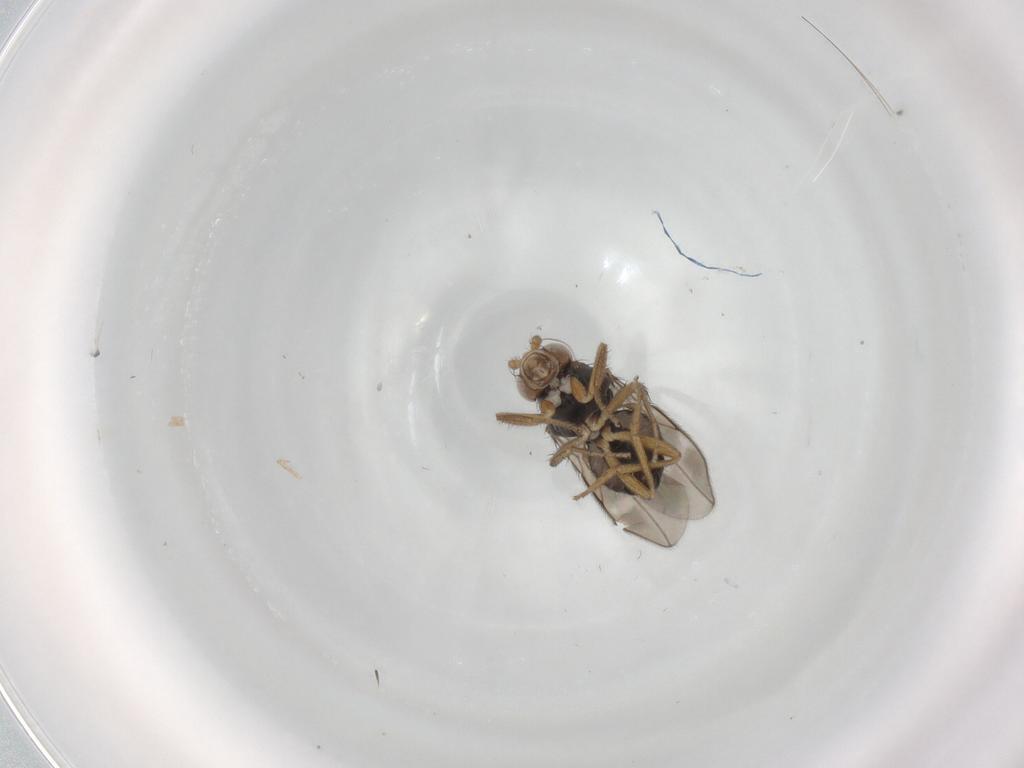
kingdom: Animalia
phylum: Arthropoda
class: Insecta
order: Diptera
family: Sphaeroceridae
